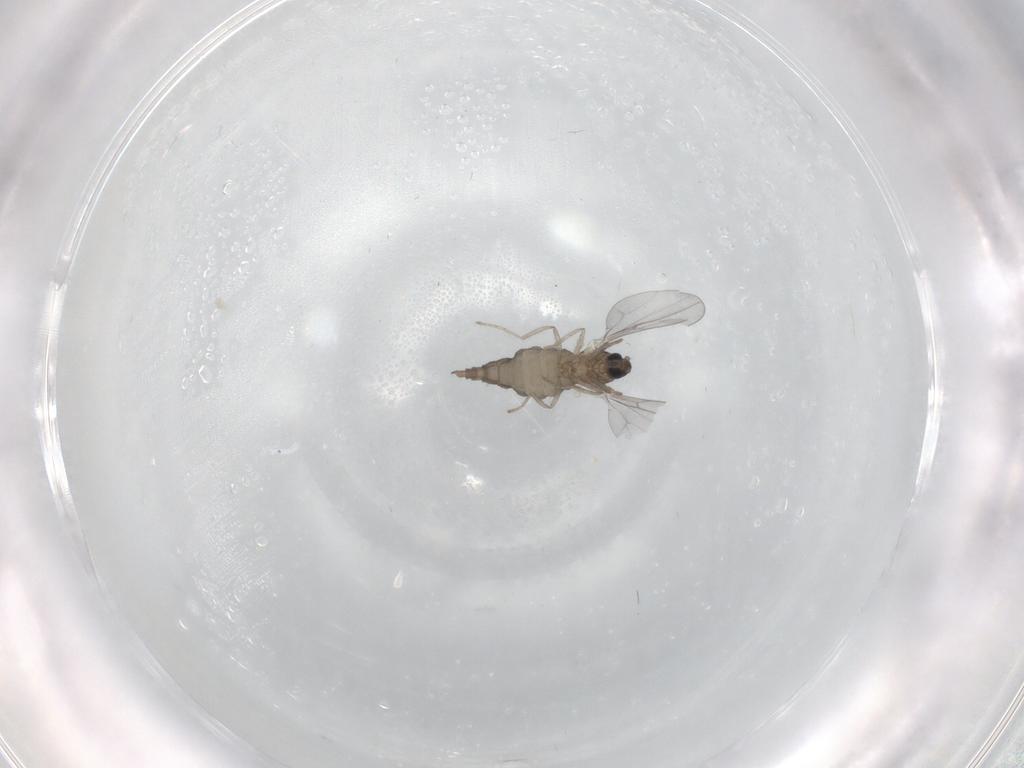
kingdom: Animalia
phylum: Arthropoda
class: Insecta
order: Diptera
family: Cecidomyiidae
